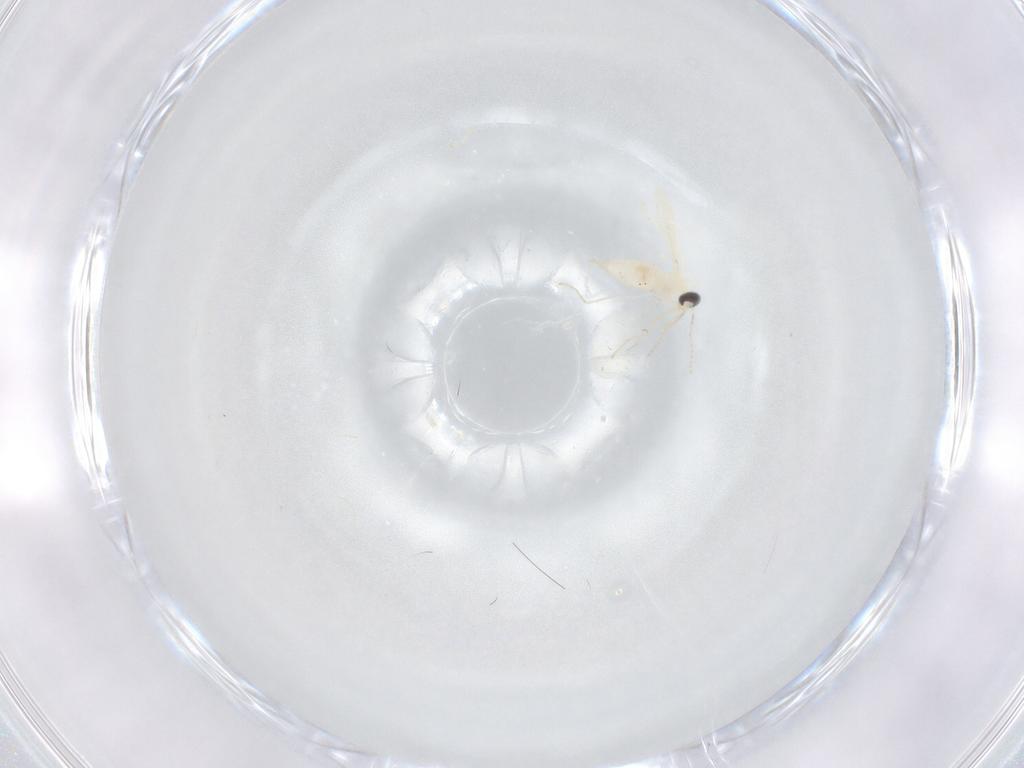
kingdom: Animalia
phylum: Arthropoda
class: Insecta
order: Diptera
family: Cecidomyiidae
